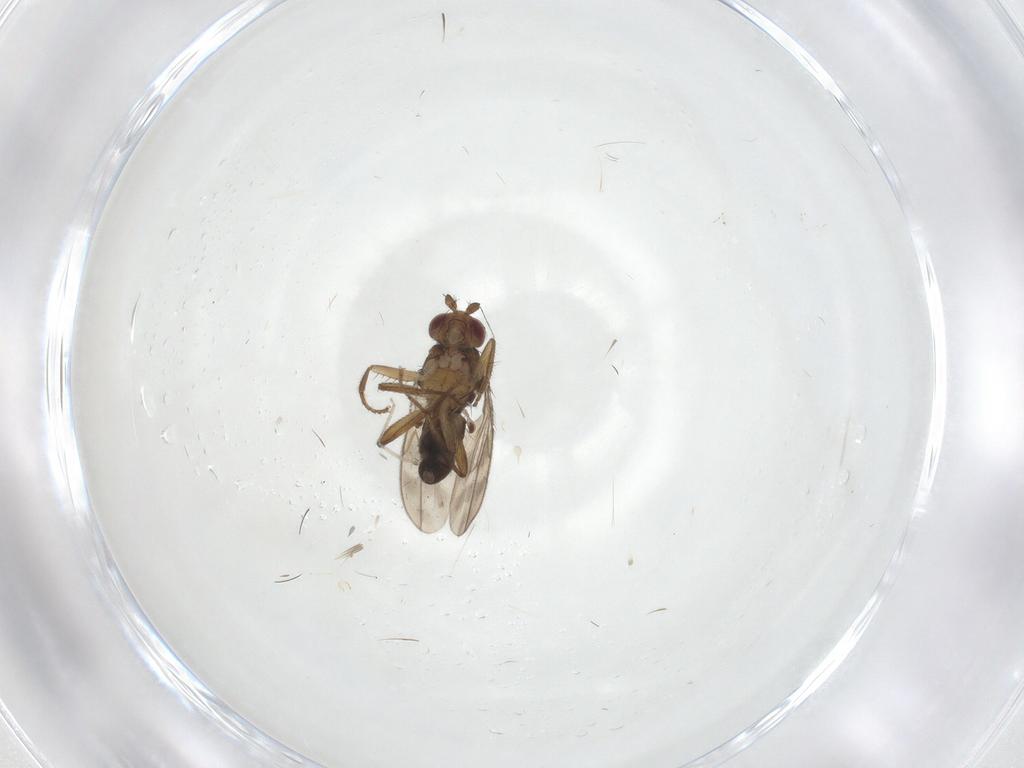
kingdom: Animalia
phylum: Arthropoda
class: Insecta
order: Diptera
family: Sphaeroceridae
